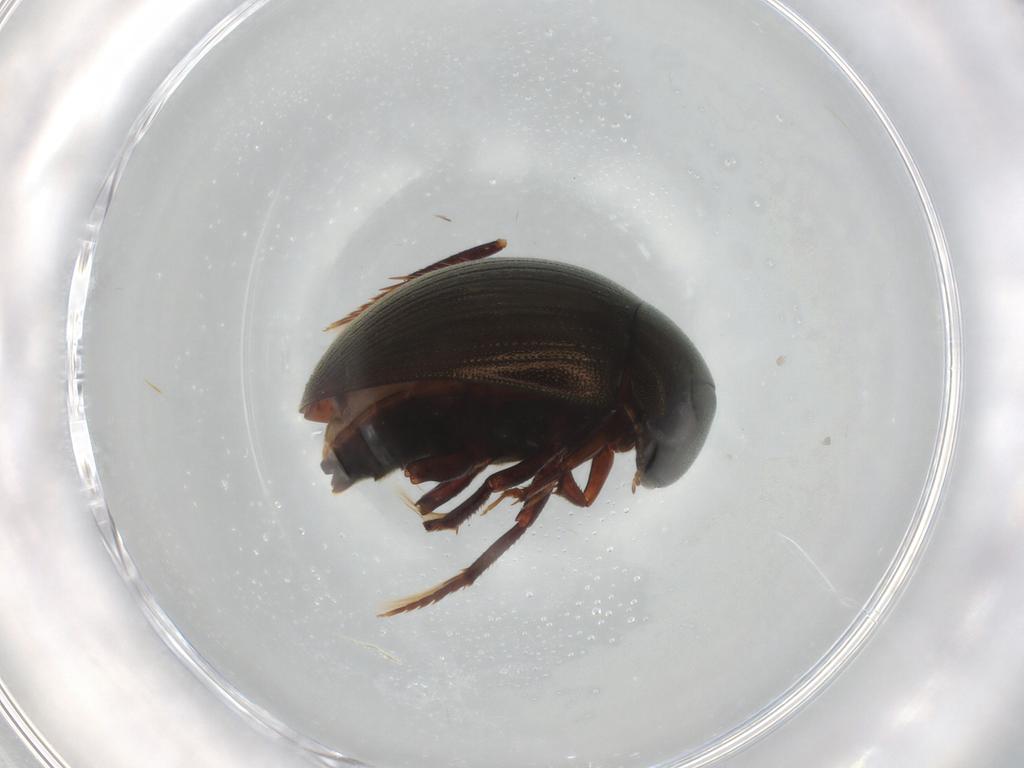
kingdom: Animalia
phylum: Arthropoda
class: Insecta
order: Coleoptera
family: Chrysomelidae
